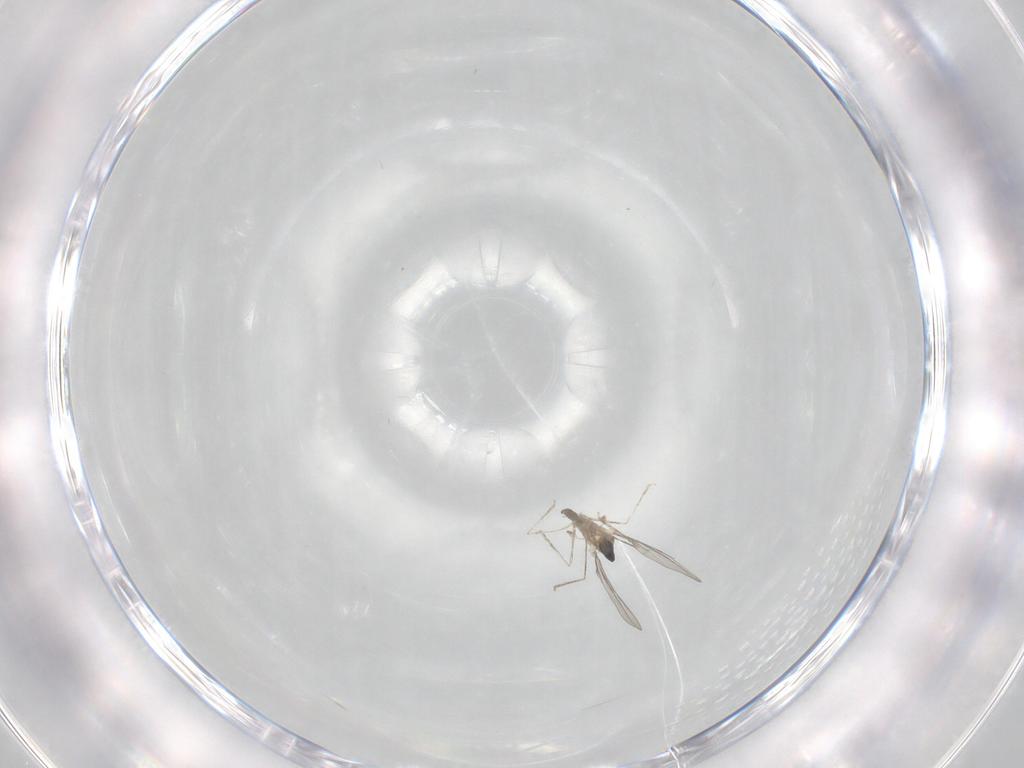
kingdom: Animalia
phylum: Arthropoda
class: Insecta
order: Diptera
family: Cecidomyiidae
